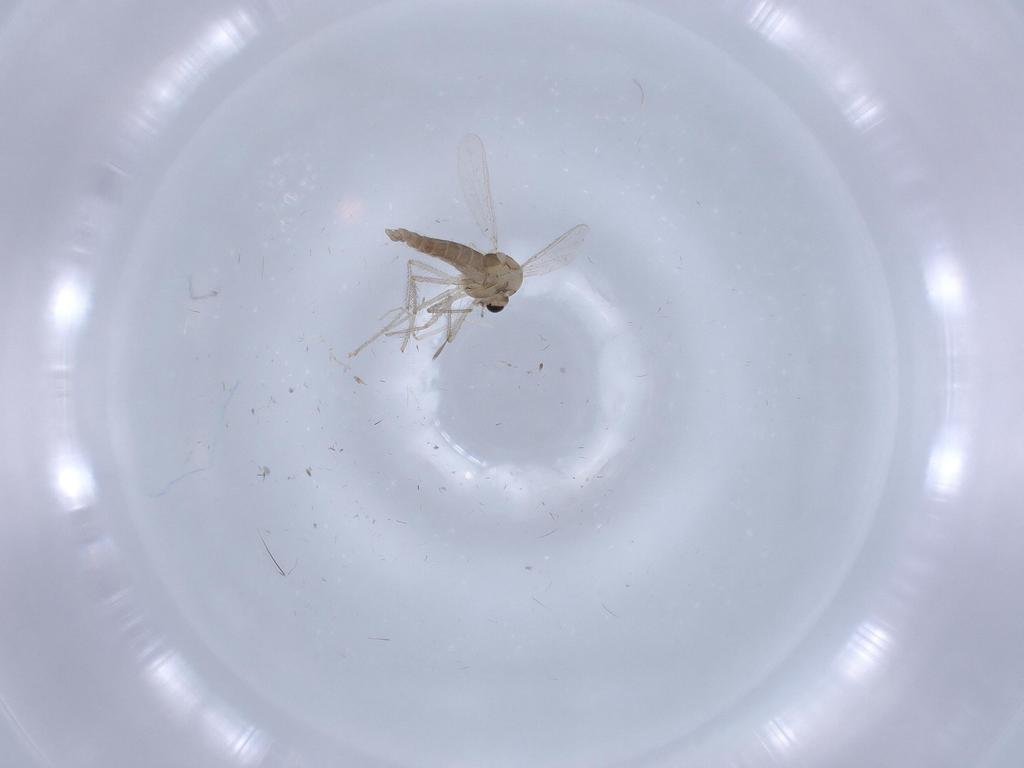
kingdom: Animalia
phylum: Arthropoda
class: Insecta
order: Diptera
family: Chironomidae
